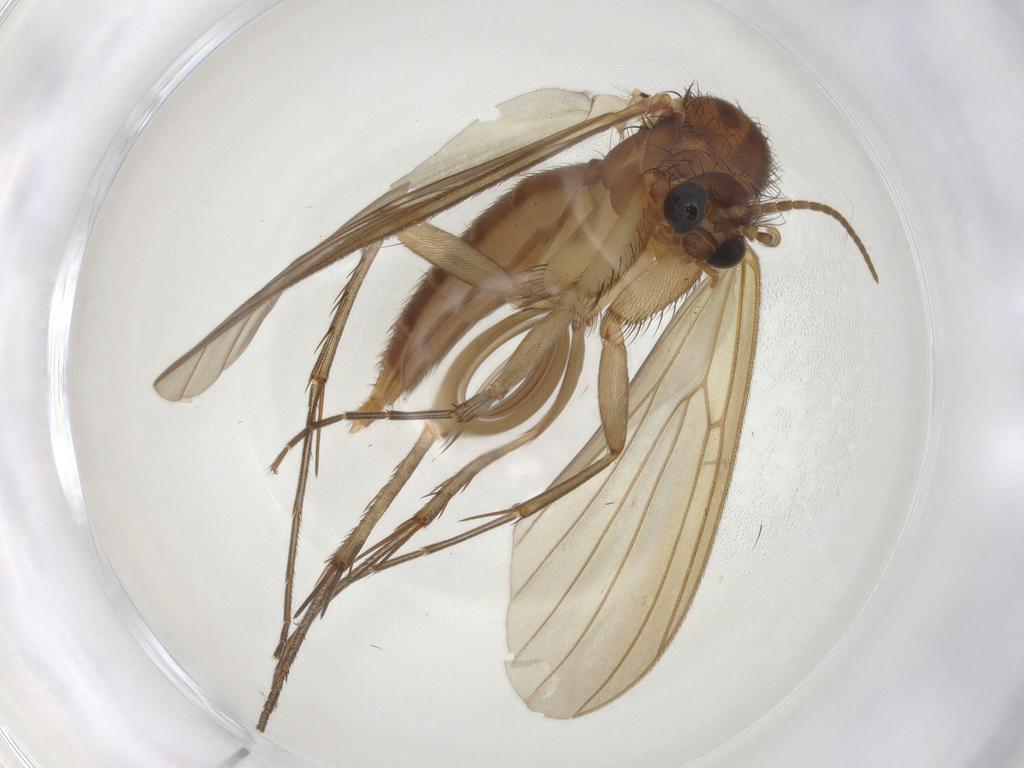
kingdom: Animalia
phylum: Arthropoda
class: Insecta
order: Diptera
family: Mycetophilidae
